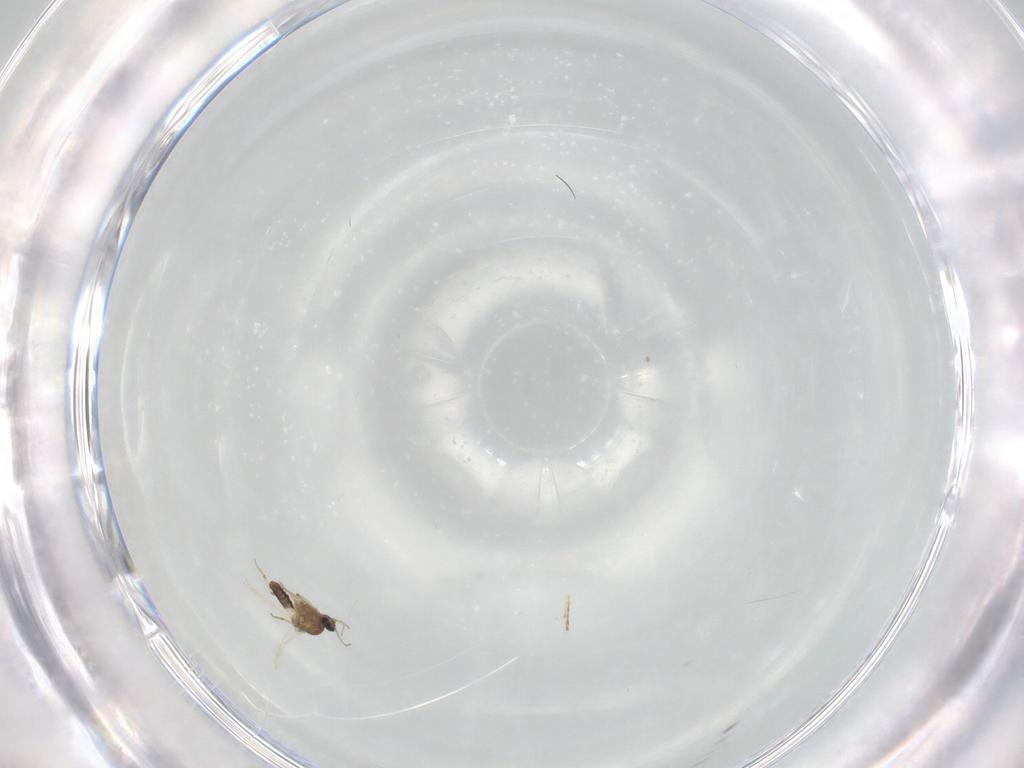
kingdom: Animalia
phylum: Arthropoda
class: Insecta
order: Diptera
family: Ceratopogonidae
